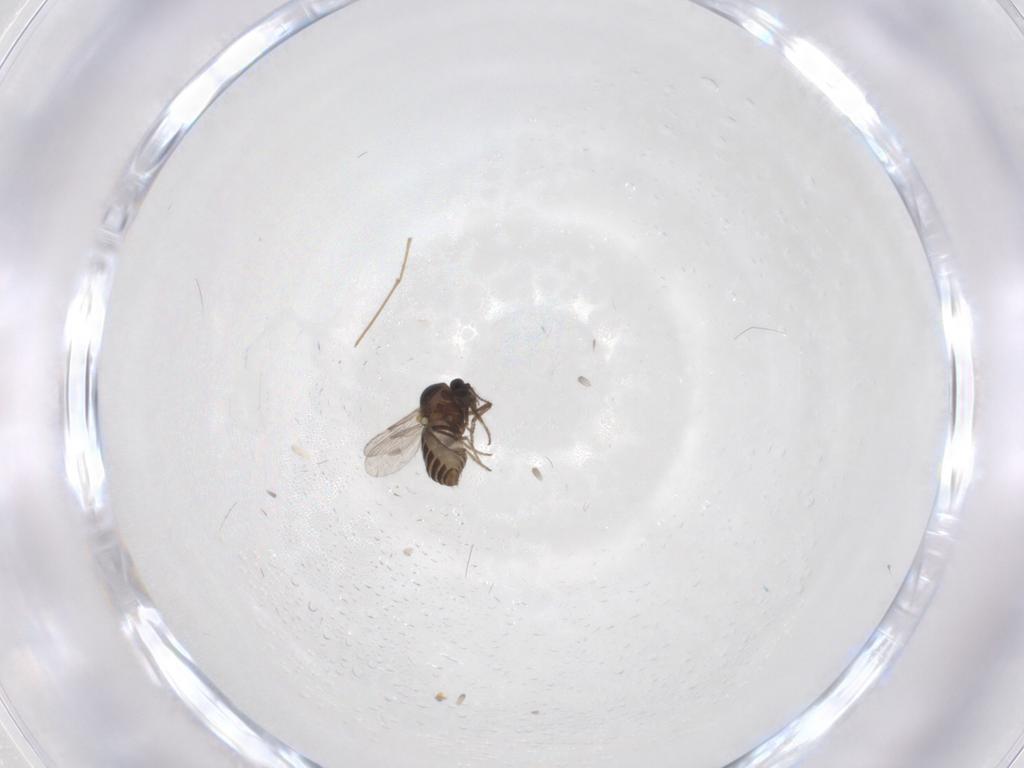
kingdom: Animalia
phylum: Arthropoda
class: Insecta
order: Diptera
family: Ceratopogonidae
